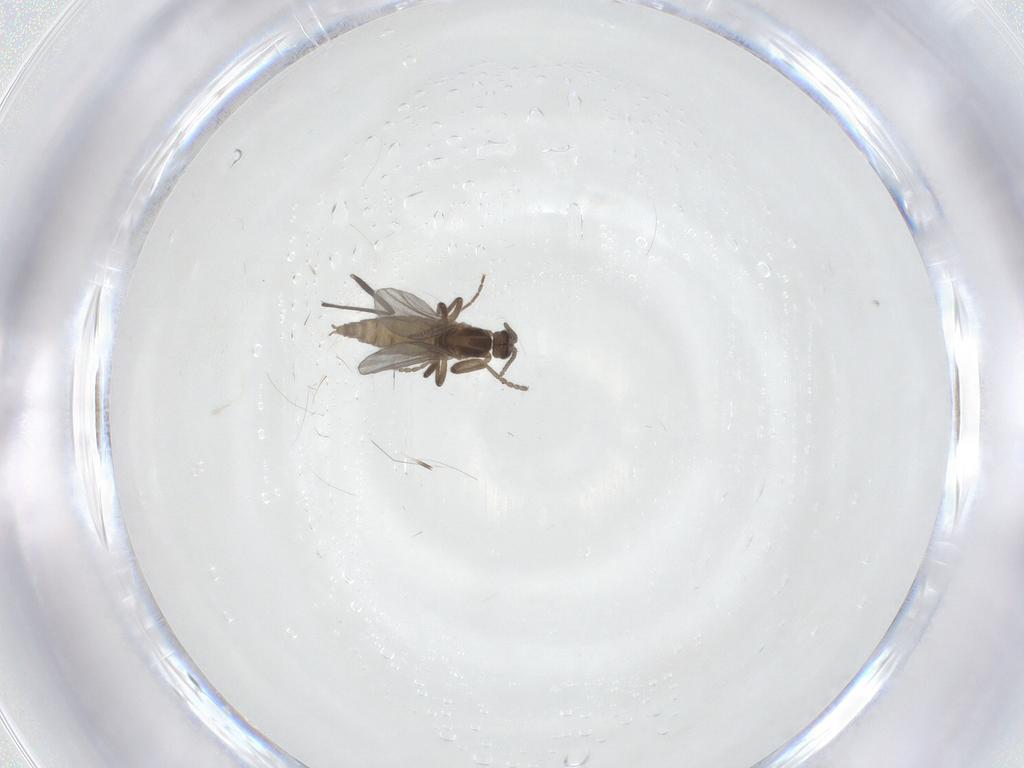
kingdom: Animalia
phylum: Arthropoda
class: Insecta
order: Diptera
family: Cecidomyiidae
